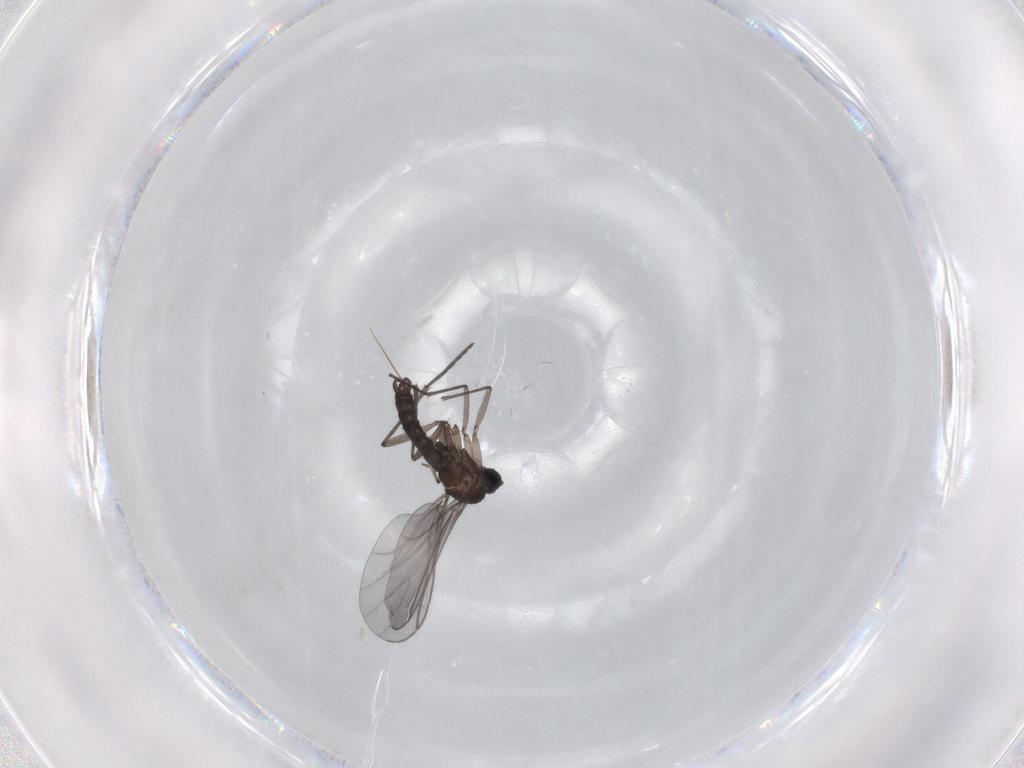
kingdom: Animalia
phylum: Arthropoda
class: Insecta
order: Diptera
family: Sciaridae
